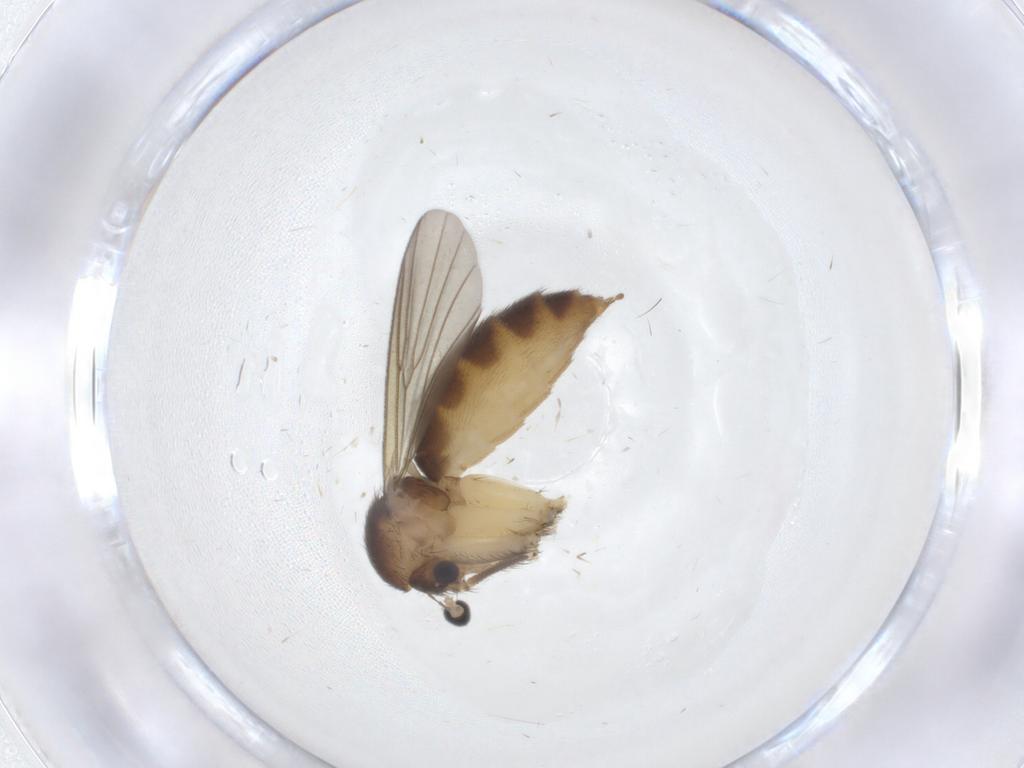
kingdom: Animalia
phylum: Arthropoda
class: Insecta
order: Diptera
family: Mycetophilidae
